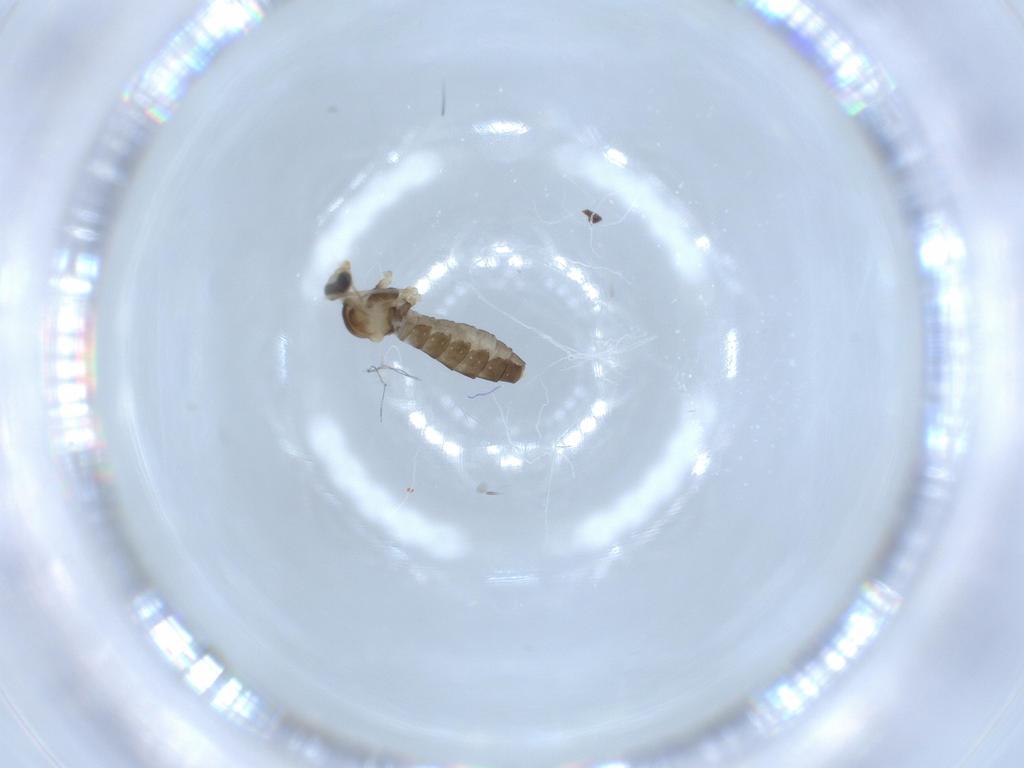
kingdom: Animalia
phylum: Arthropoda
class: Insecta
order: Diptera
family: Cecidomyiidae
